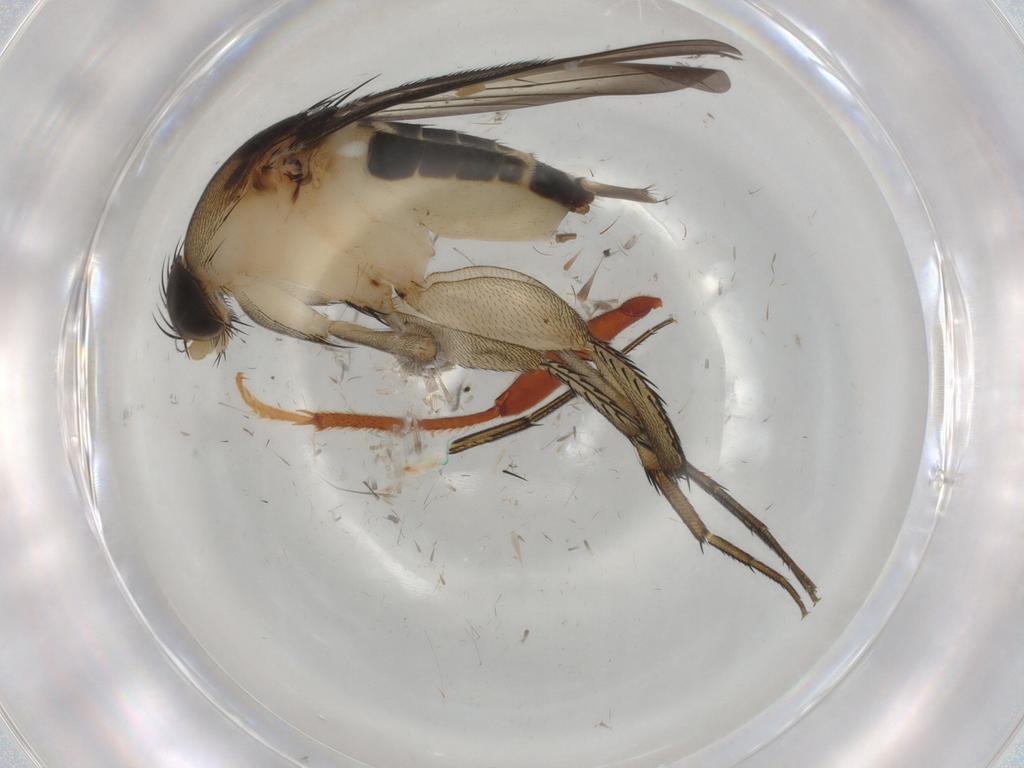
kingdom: Animalia
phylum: Arthropoda
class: Insecta
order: Diptera
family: Phoridae
